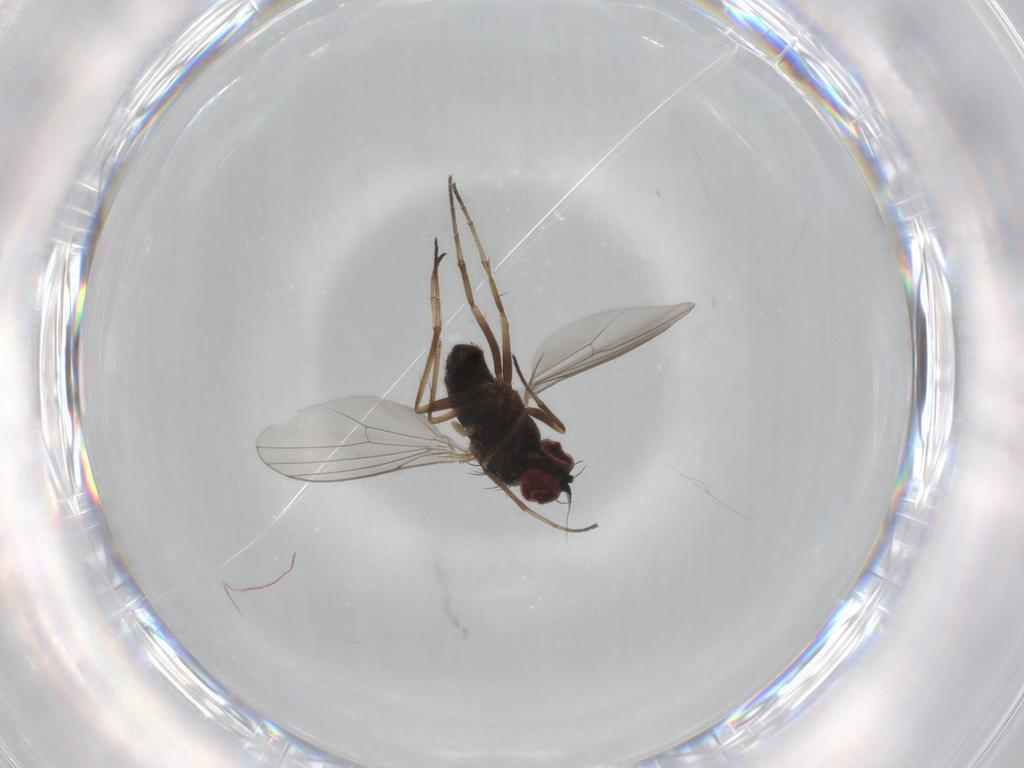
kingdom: Animalia
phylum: Arthropoda
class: Insecta
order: Diptera
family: Dolichopodidae
